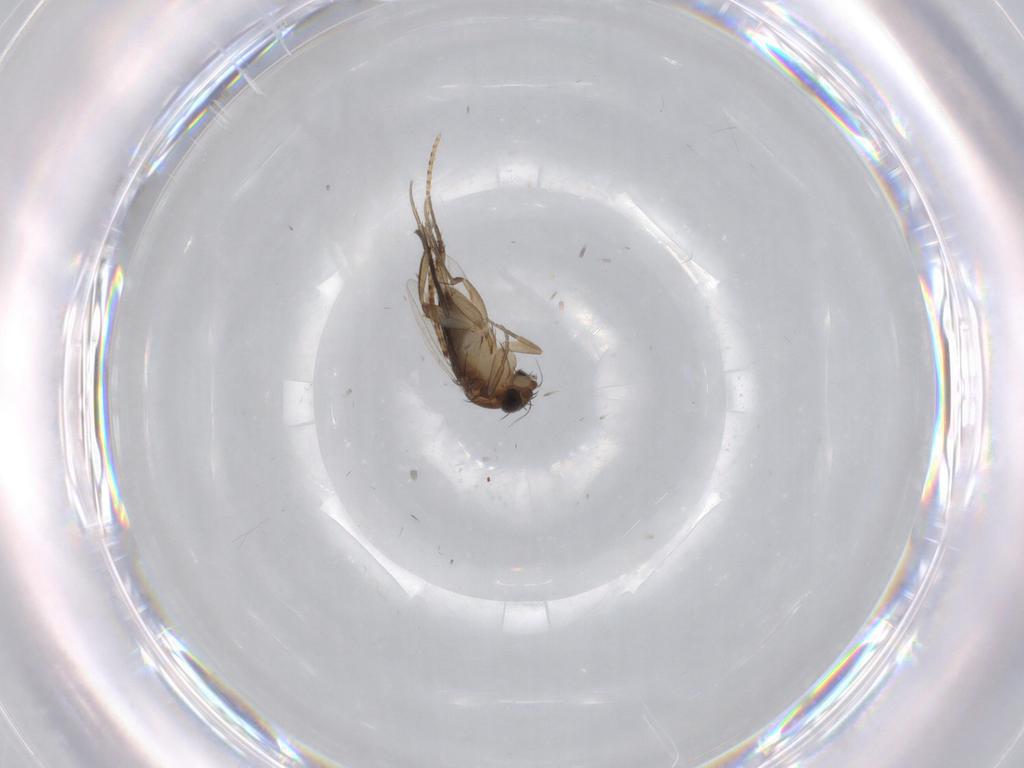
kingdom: Animalia
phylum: Arthropoda
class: Insecta
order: Diptera
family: Phoridae
